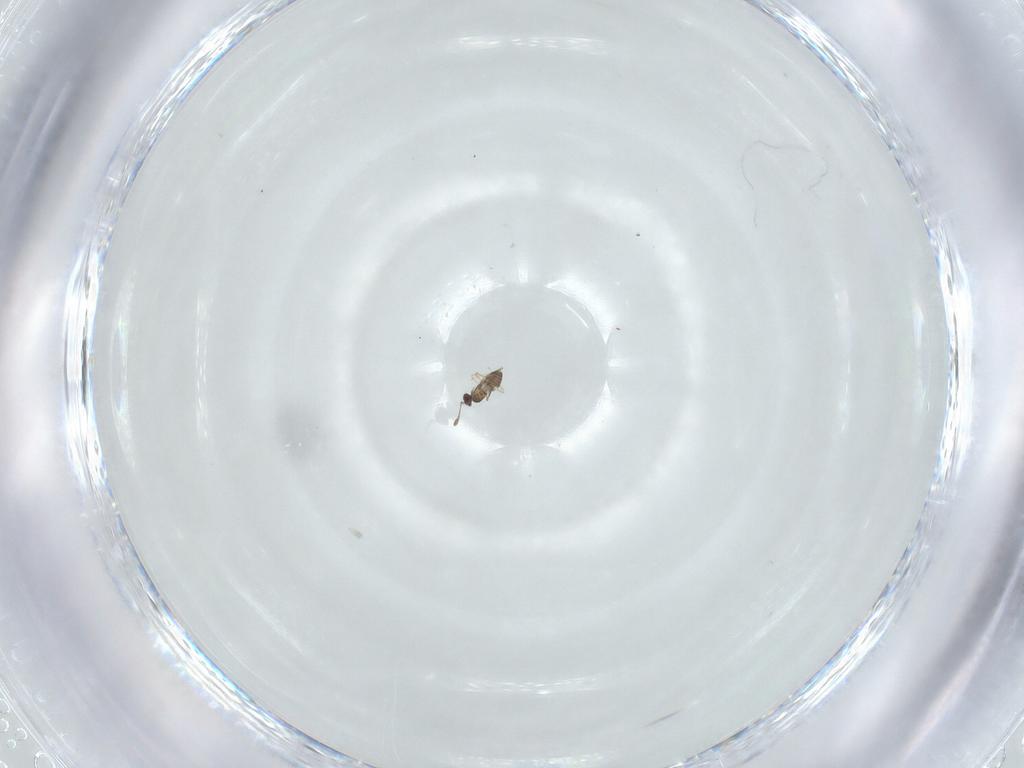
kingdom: Animalia
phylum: Arthropoda
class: Insecta
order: Hymenoptera
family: Mymaridae
